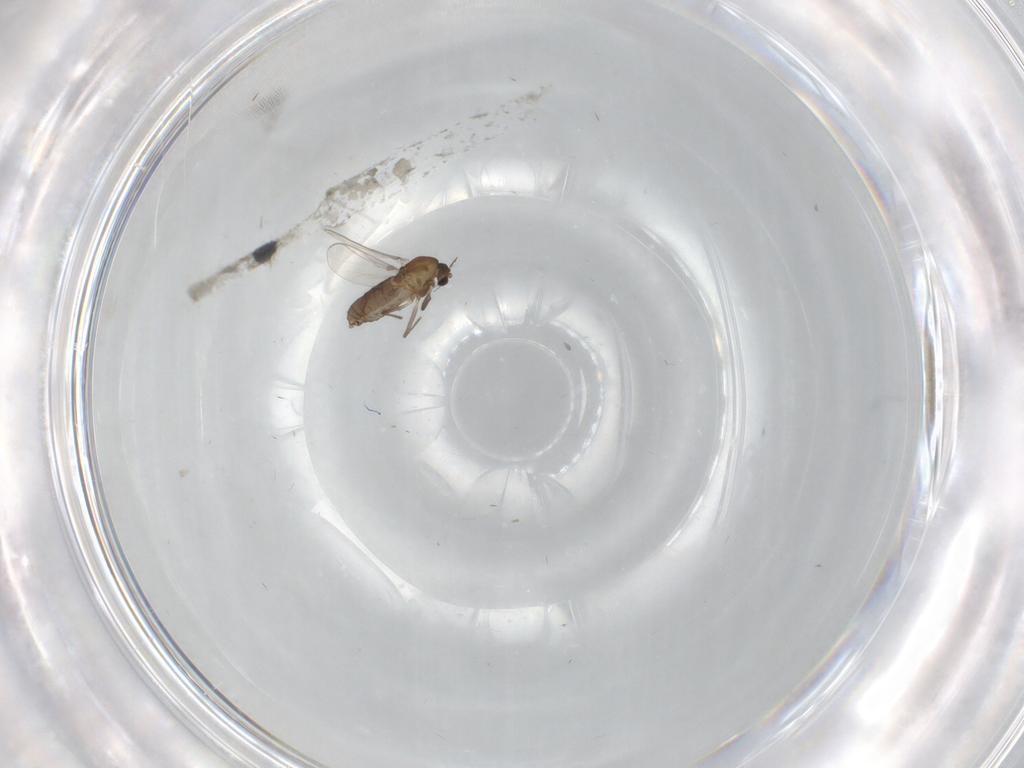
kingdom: Animalia
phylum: Arthropoda
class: Insecta
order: Diptera
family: Chironomidae
